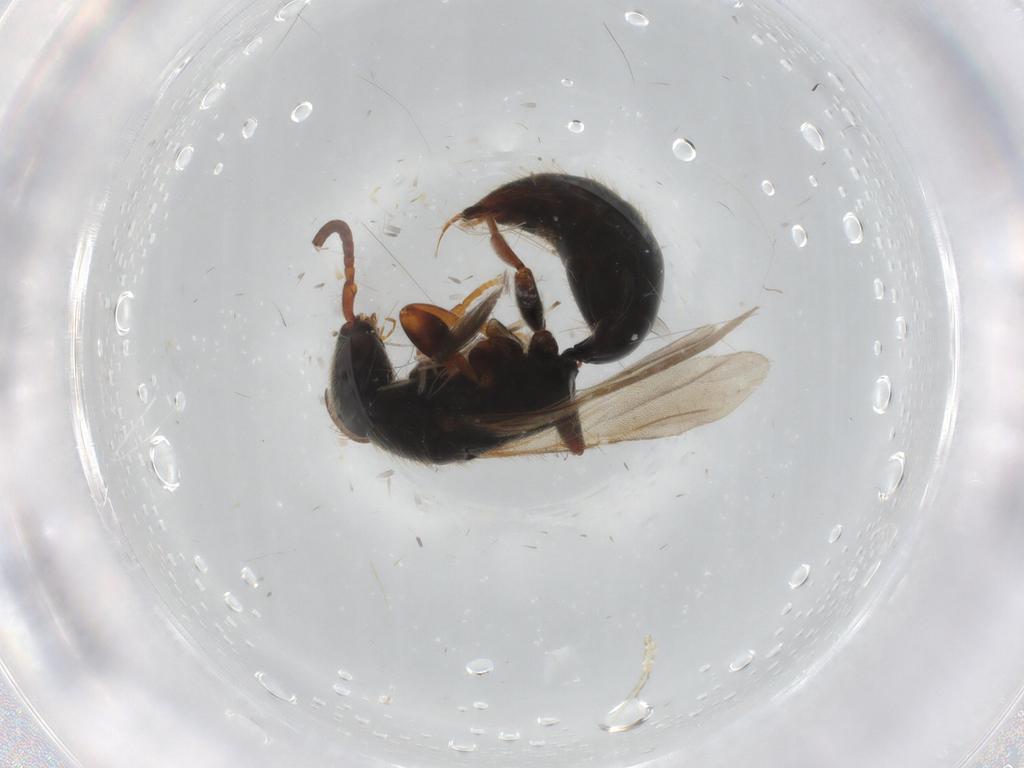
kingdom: Animalia
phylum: Arthropoda
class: Insecta
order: Hymenoptera
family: Bethylidae
